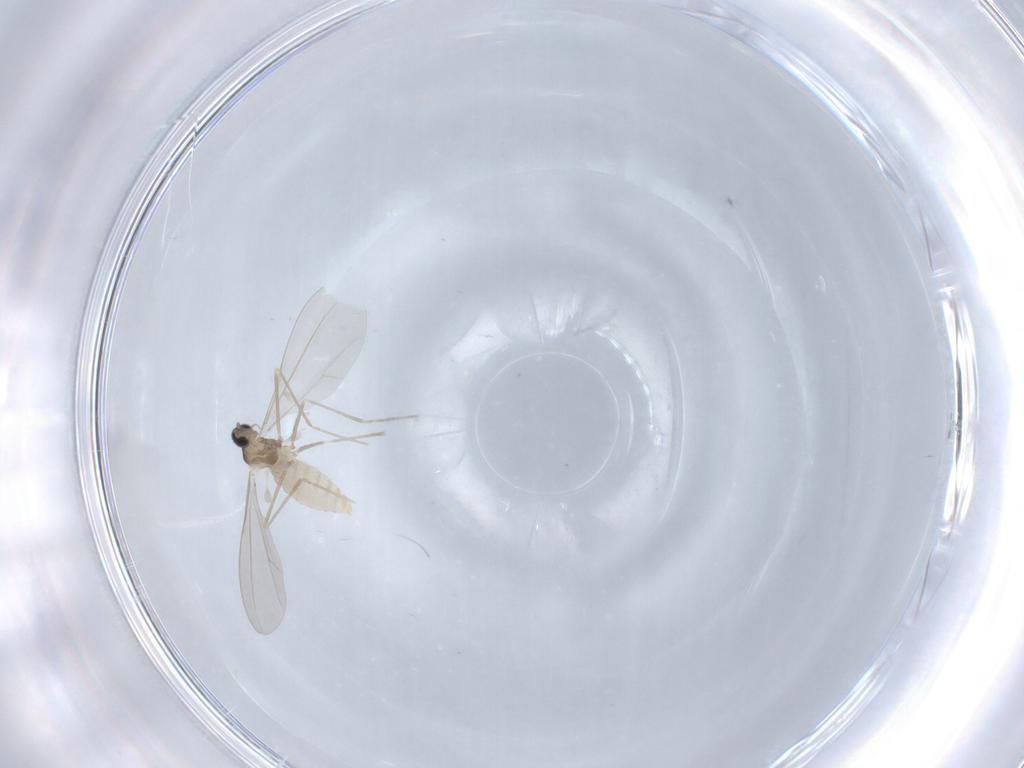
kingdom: Animalia
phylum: Arthropoda
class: Insecta
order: Diptera
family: Cecidomyiidae
